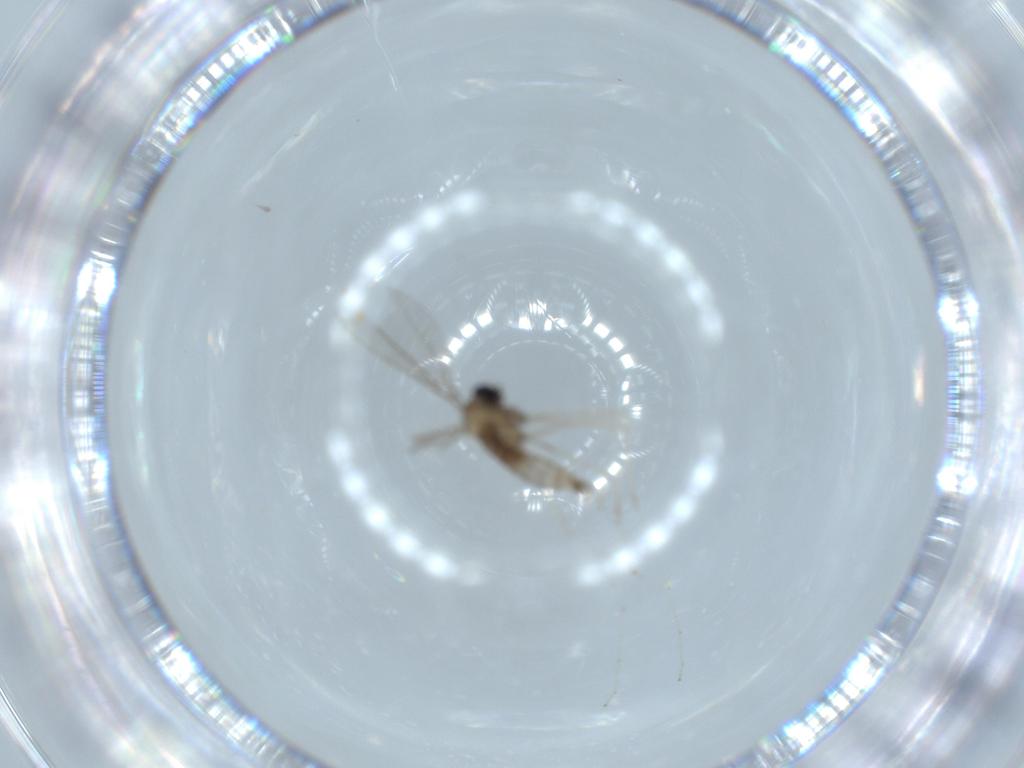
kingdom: Animalia
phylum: Arthropoda
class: Insecta
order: Diptera
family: Cecidomyiidae
